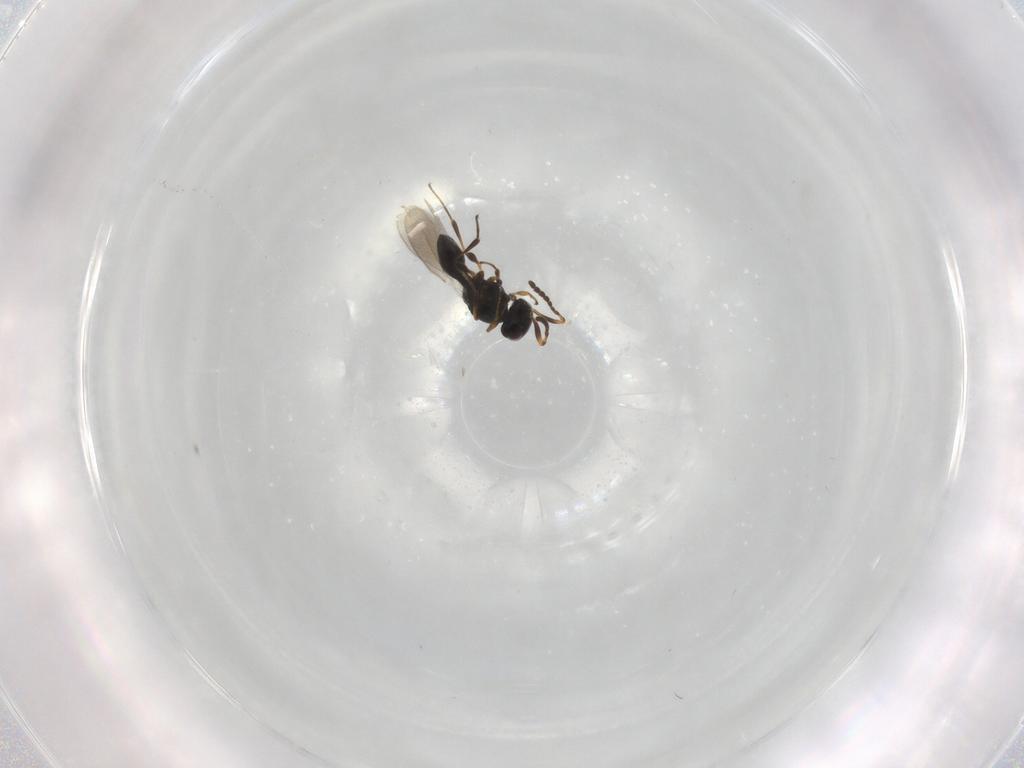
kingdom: Animalia
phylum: Arthropoda
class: Insecta
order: Hymenoptera
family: Platygastridae
